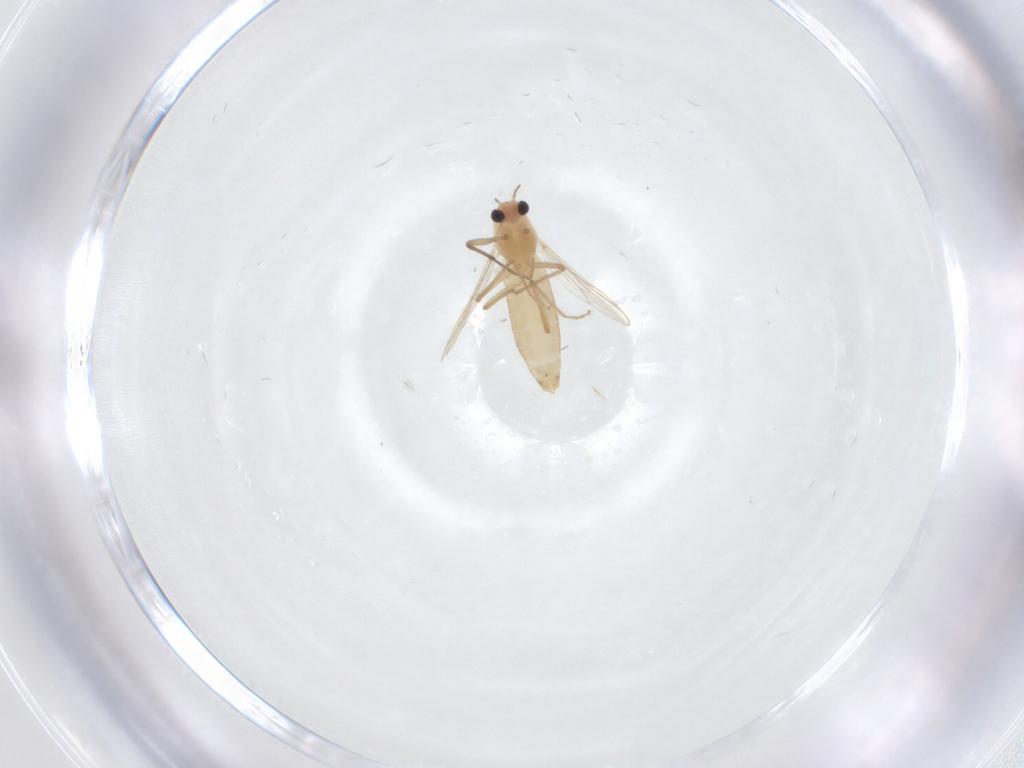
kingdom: Animalia
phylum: Arthropoda
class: Insecta
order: Diptera
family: Chironomidae
